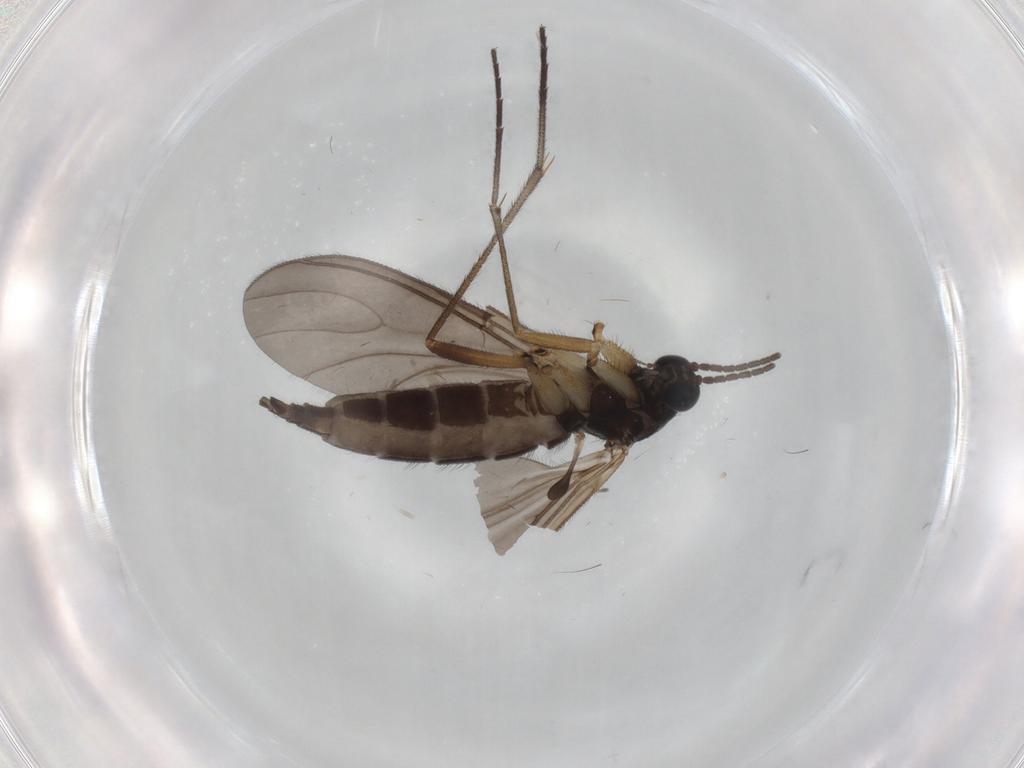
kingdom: Animalia
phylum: Arthropoda
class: Insecta
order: Diptera
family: Sciaridae
